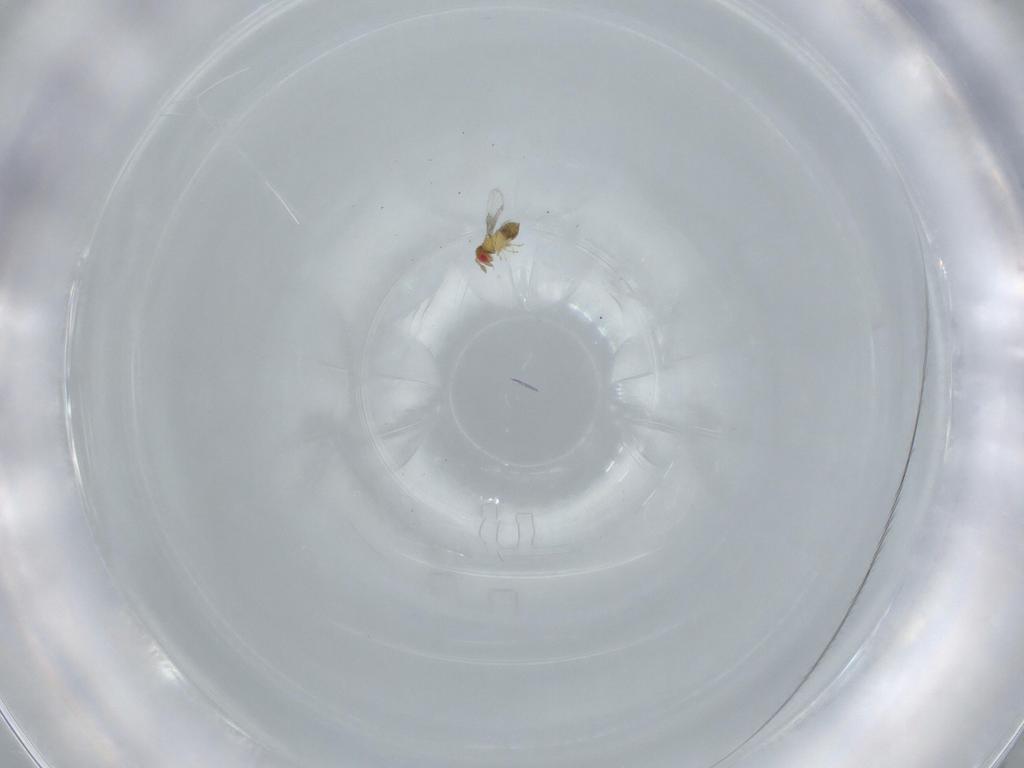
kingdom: Animalia
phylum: Arthropoda
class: Insecta
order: Hymenoptera
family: Trichogrammatidae
